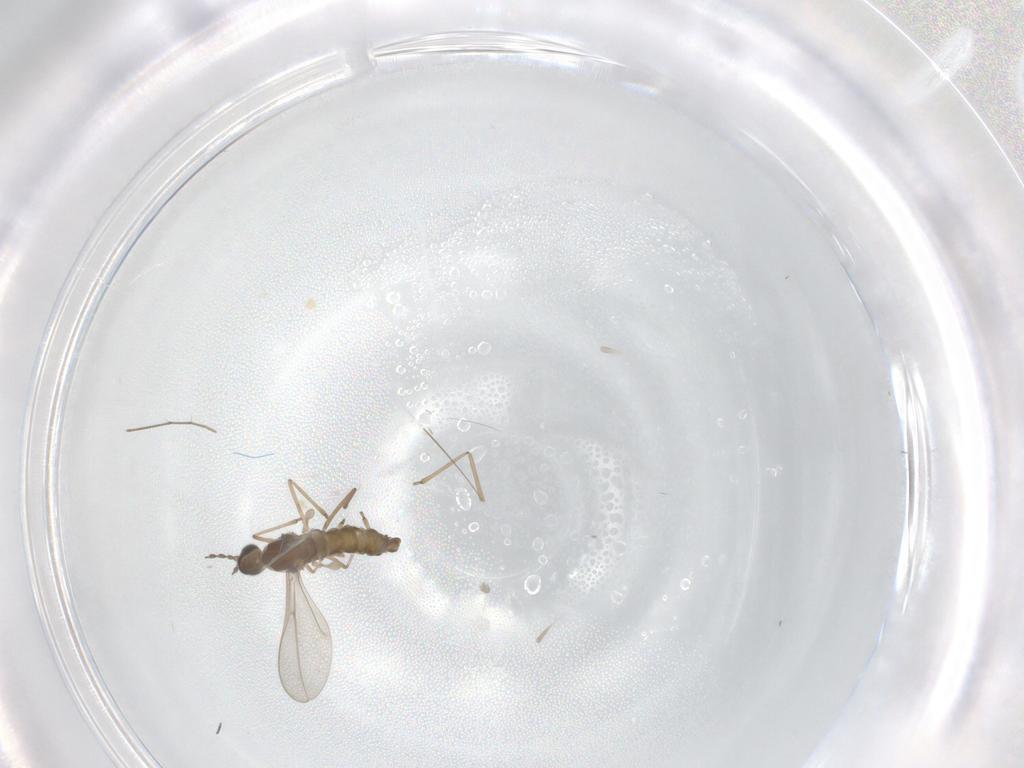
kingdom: Animalia
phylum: Arthropoda
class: Insecta
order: Diptera
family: Cecidomyiidae
